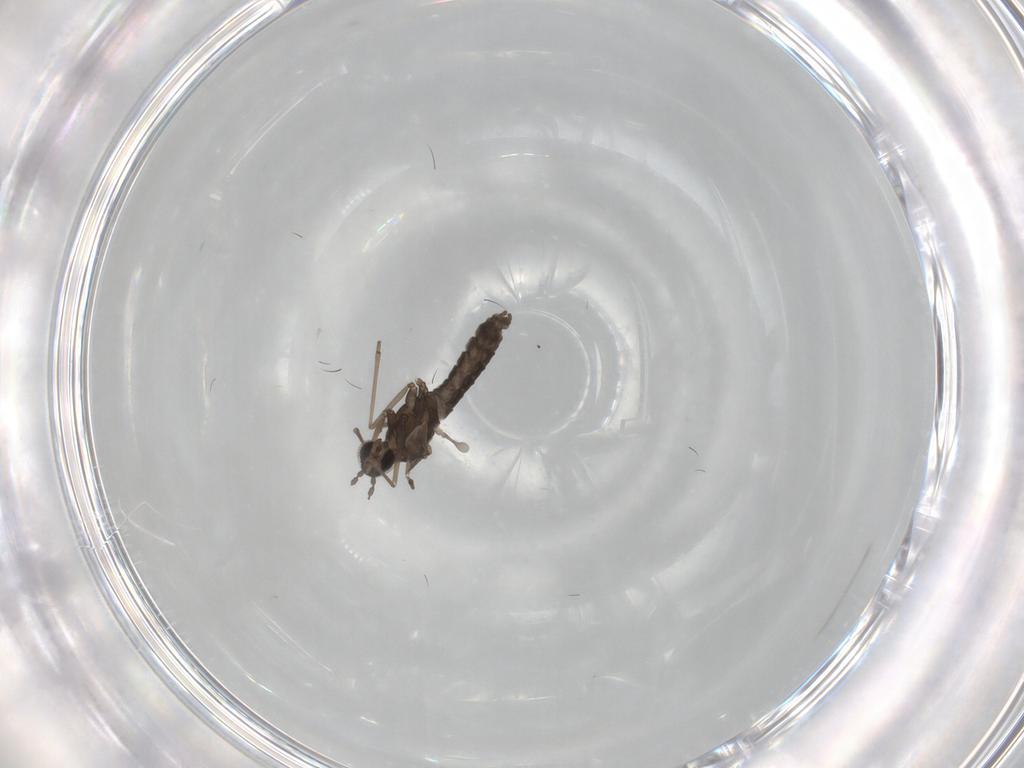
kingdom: Animalia
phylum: Arthropoda
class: Insecta
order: Diptera
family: Cecidomyiidae
